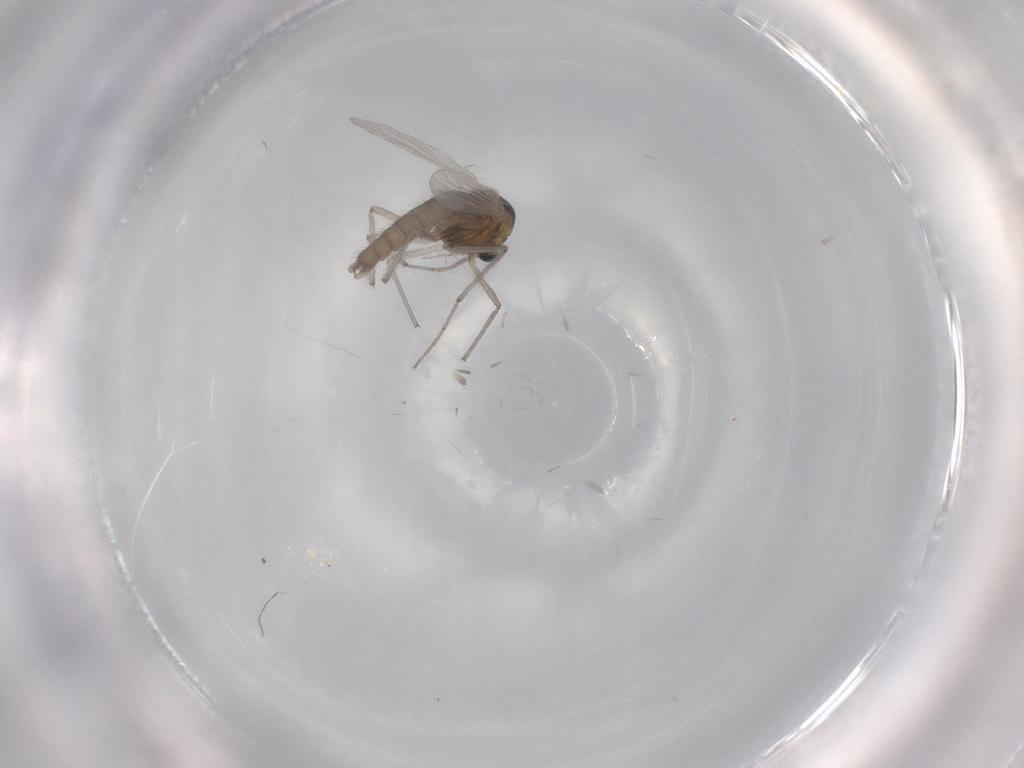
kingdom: Animalia
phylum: Arthropoda
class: Insecta
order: Diptera
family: Chironomidae
